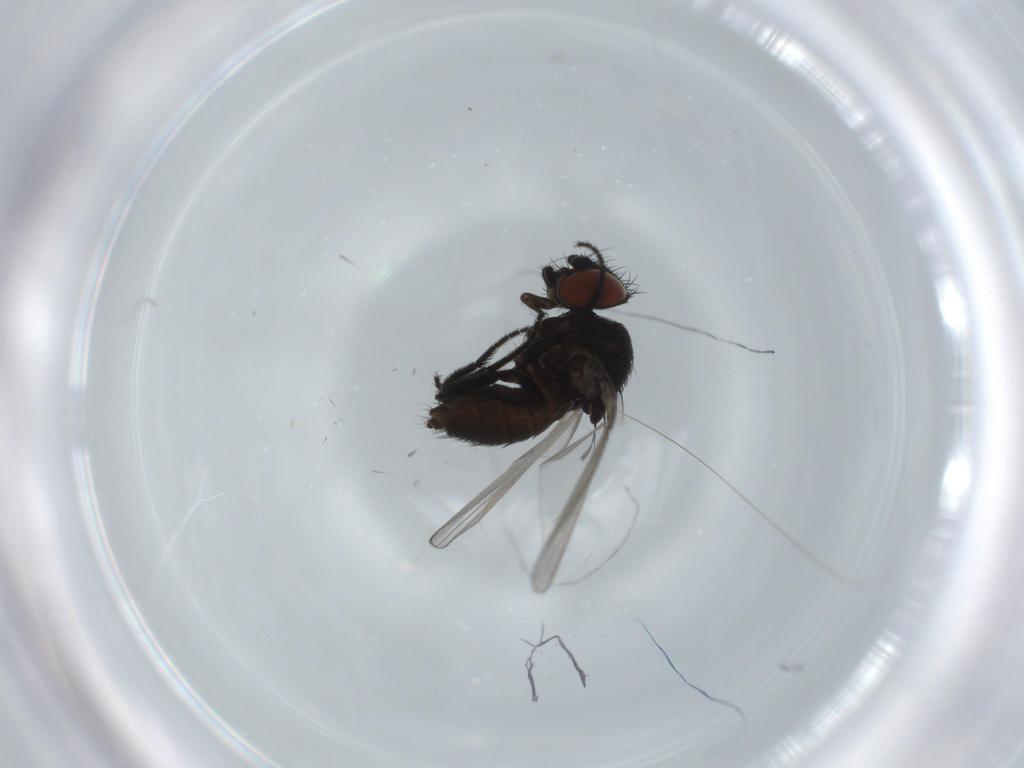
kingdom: Animalia
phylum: Arthropoda
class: Insecta
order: Diptera
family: Milichiidae
